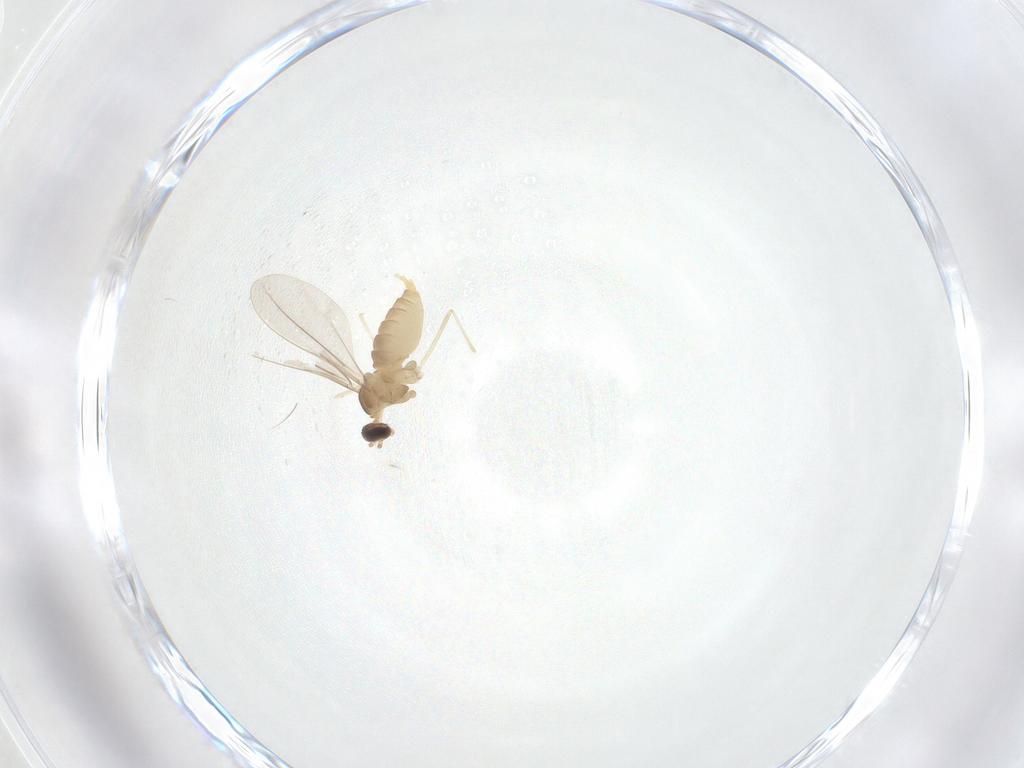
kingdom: Animalia
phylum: Arthropoda
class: Insecta
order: Diptera
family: Cecidomyiidae
